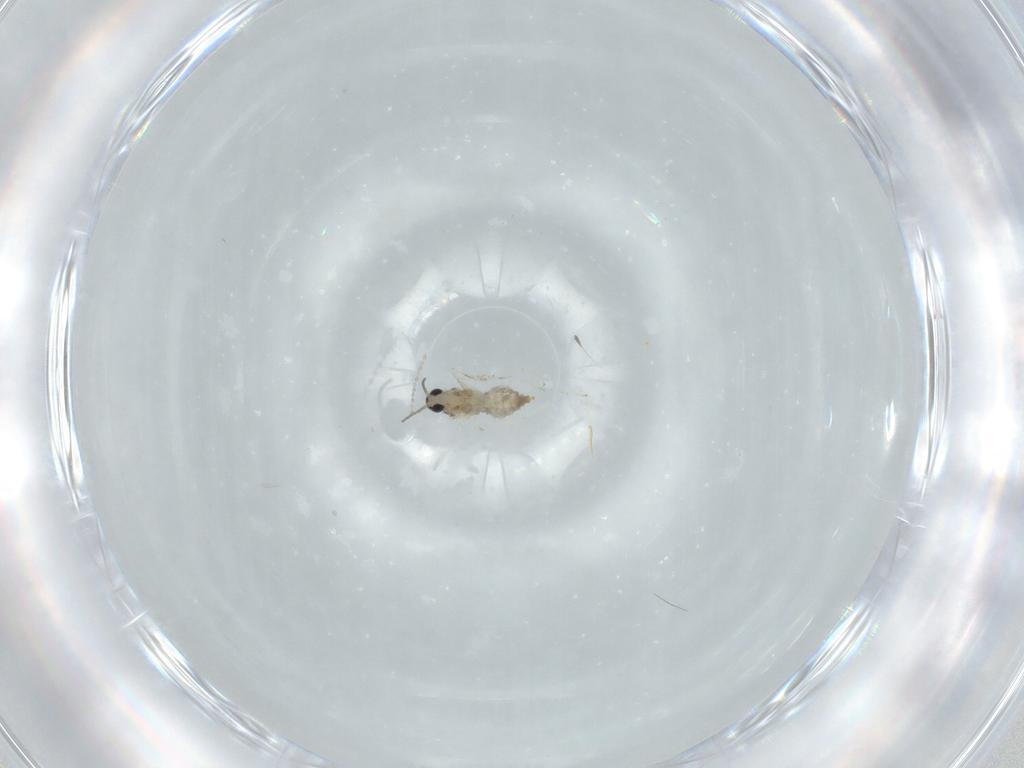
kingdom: Animalia
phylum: Arthropoda
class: Insecta
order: Diptera
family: Cecidomyiidae
